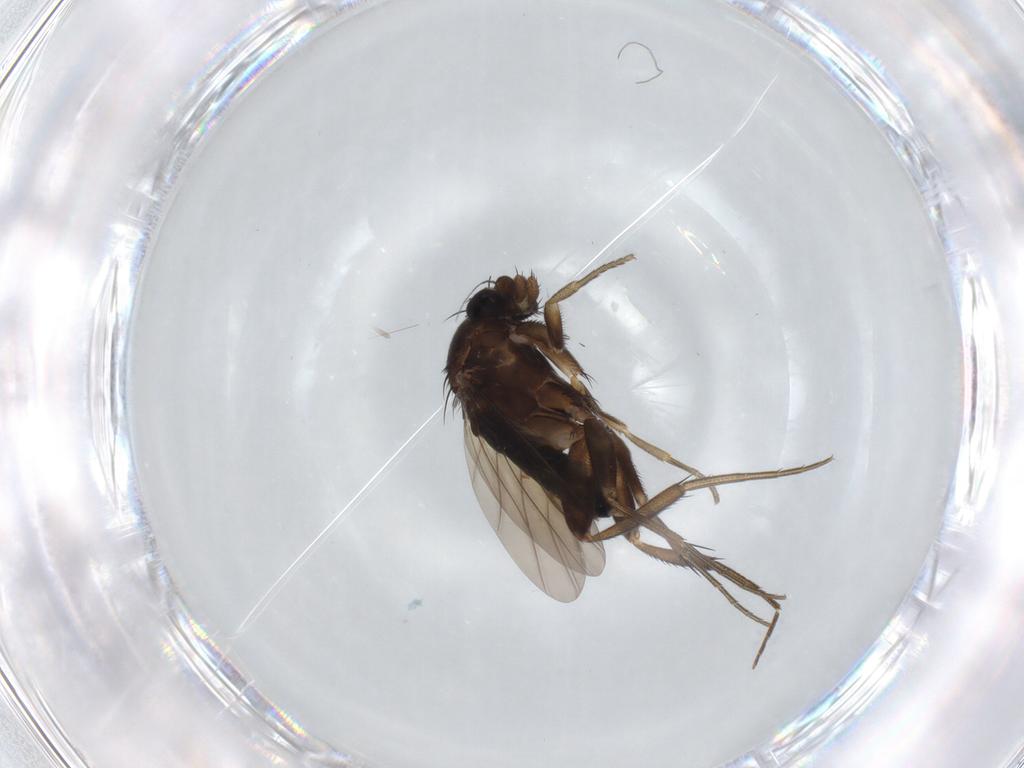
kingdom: Animalia
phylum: Arthropoda
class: Insecta
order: Diptera
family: Phoridae
